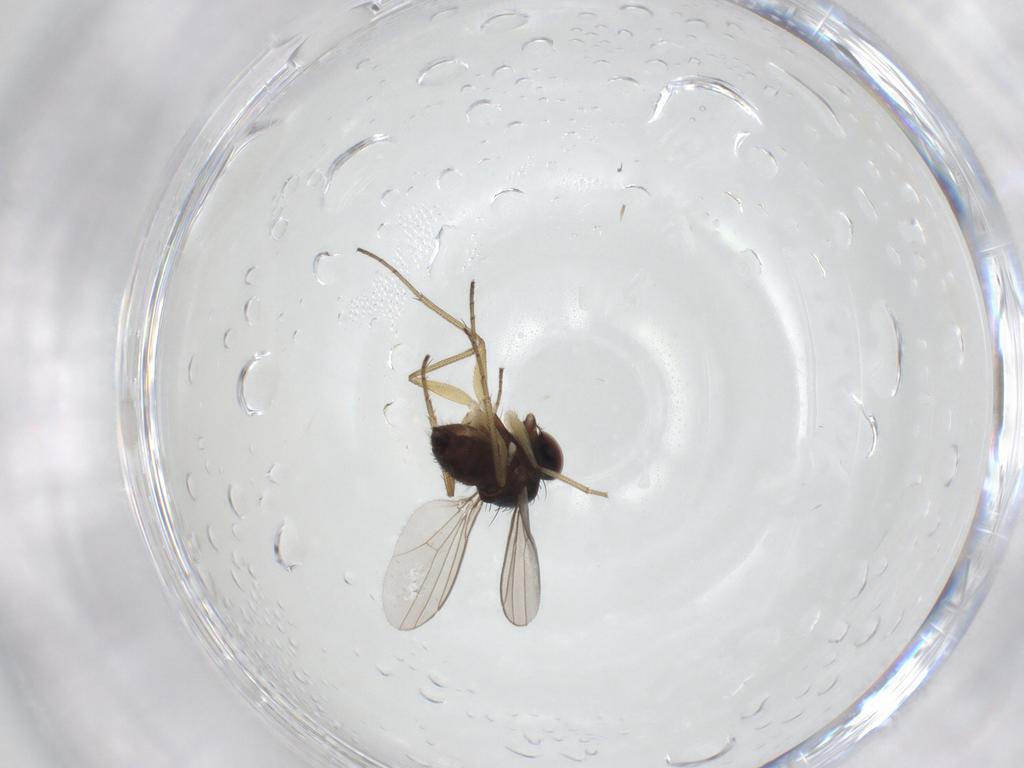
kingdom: Animalia
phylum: Arthropoda
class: Insecta
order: Diptera
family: Dolichopodidae
